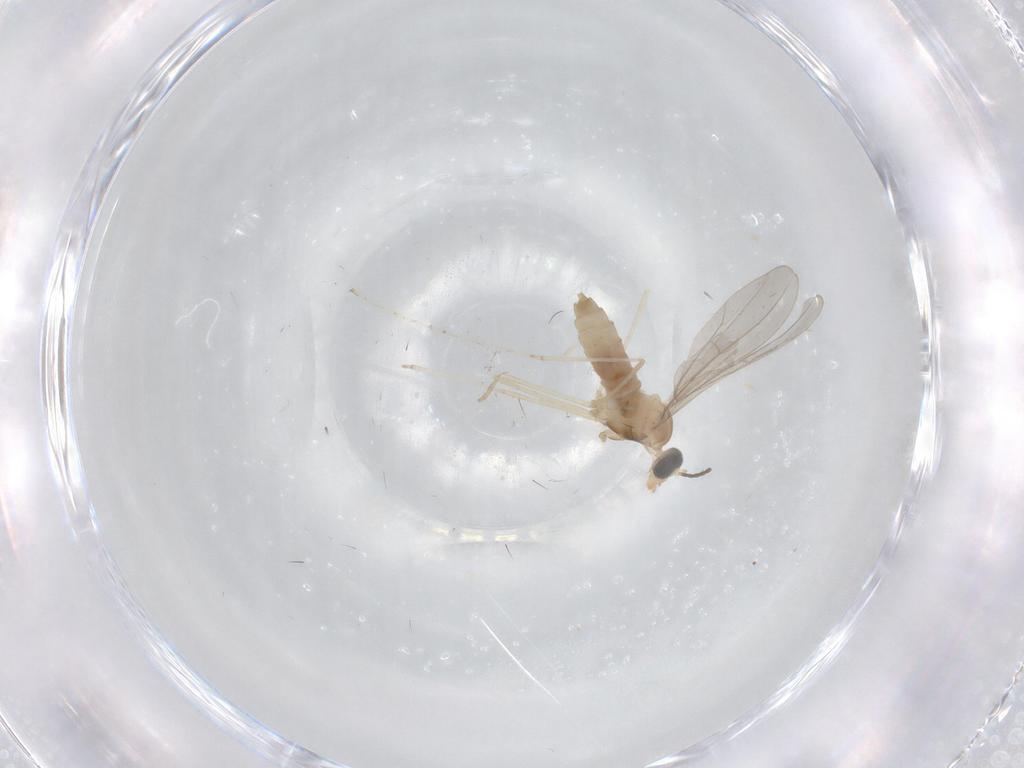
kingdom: Animalia
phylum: Arthropoda
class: Insecta
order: Diptera
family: Cecidomyiidae
